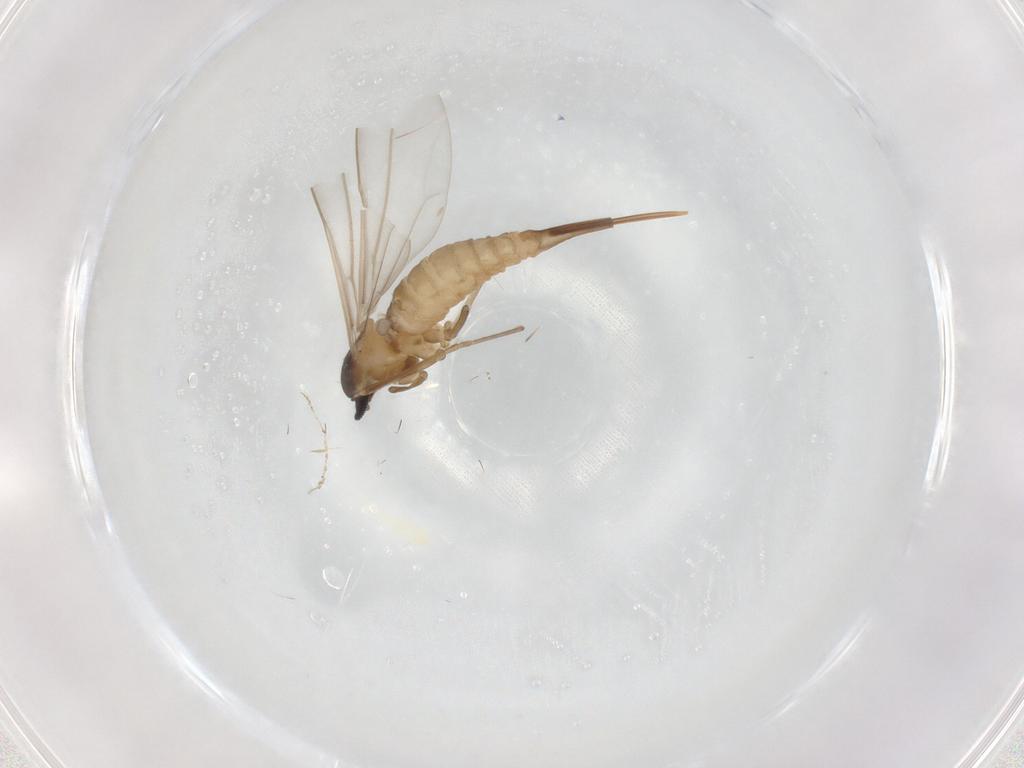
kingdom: Animalia
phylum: Arthropoda
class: Insecta
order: Diptera
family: Cecidomyiidae
